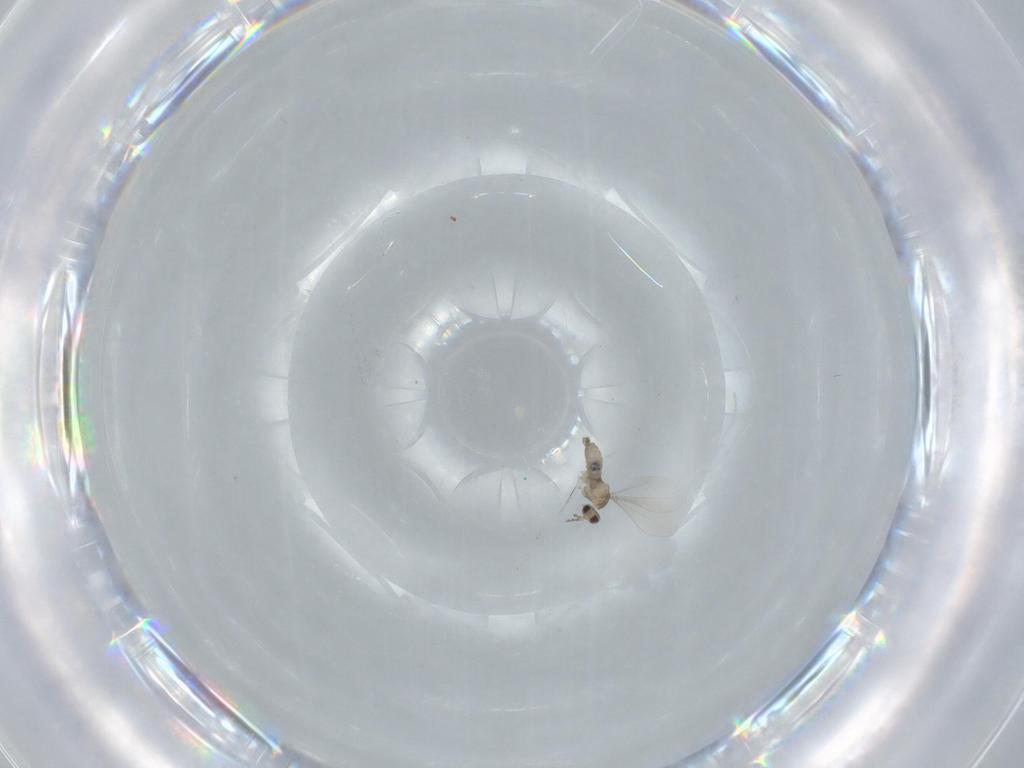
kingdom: Animalia
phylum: Arthropoda
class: Insecta
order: Diptera
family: Cecidomyiidae
